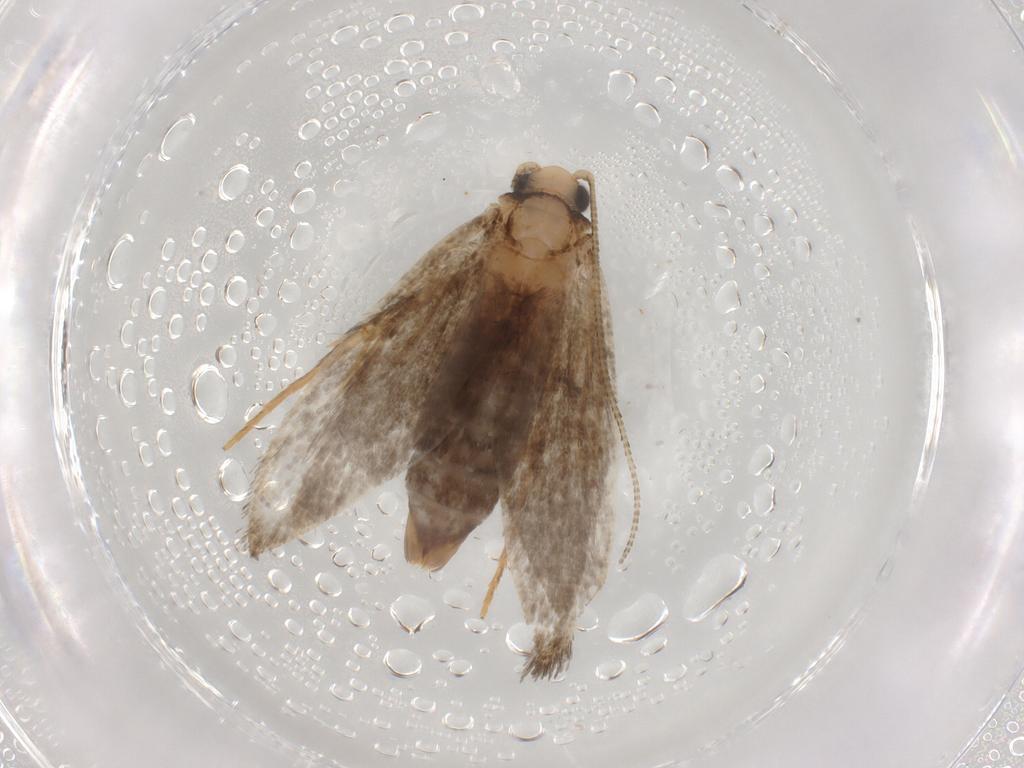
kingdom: Animalia
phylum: Arthropoda
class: Insecta
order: Lepidoptera
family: Tineidae
